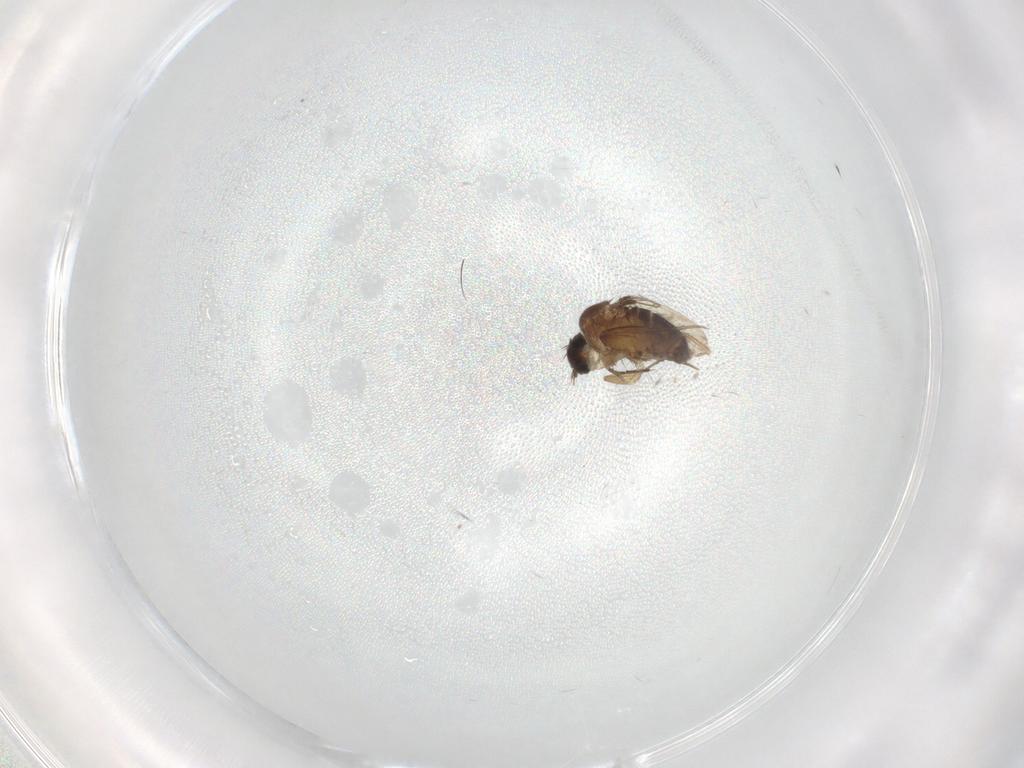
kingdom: Animalia
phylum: Arthropoda
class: Insecta
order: Diptera
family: Phoridae
